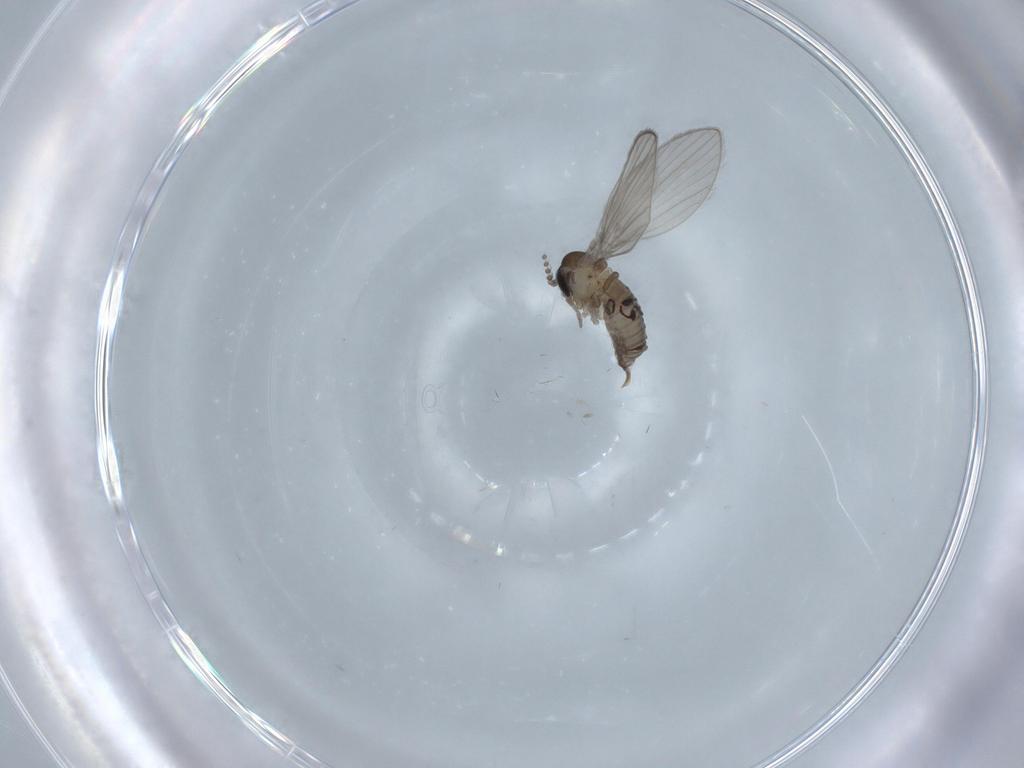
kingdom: Animalia
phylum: Arthropoda
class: Insecta
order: Diptera
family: Psychodidae
